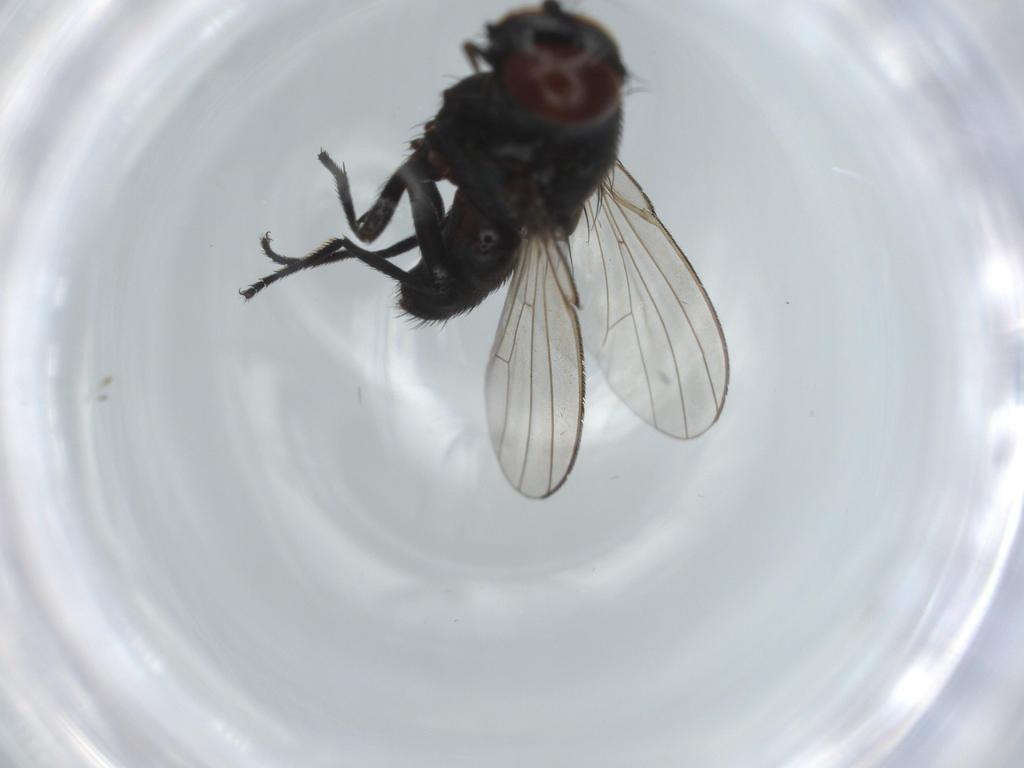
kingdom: Animalia
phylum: Arthropoda
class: Insecta
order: Diptera
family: Milichiidae
